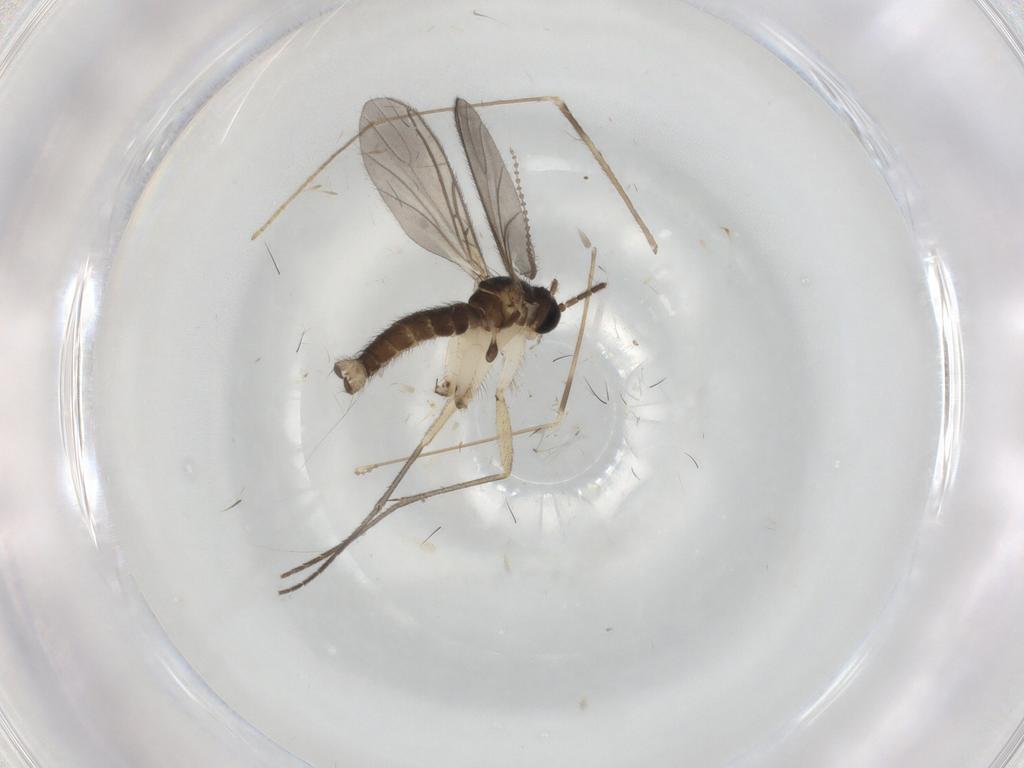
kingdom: Animalia
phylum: Arthropoda
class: Insecta
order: Diptera
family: Sciaridae
